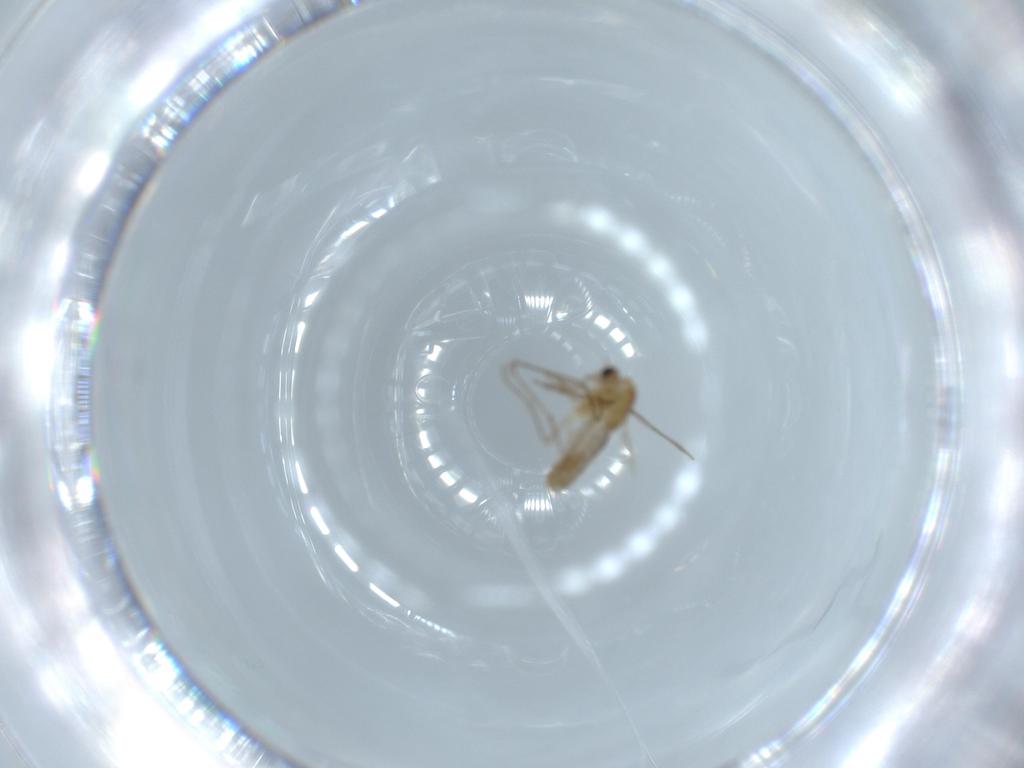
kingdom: Animalia
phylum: Arthropoda
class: Insecta
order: Diptera
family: Chironomidae
